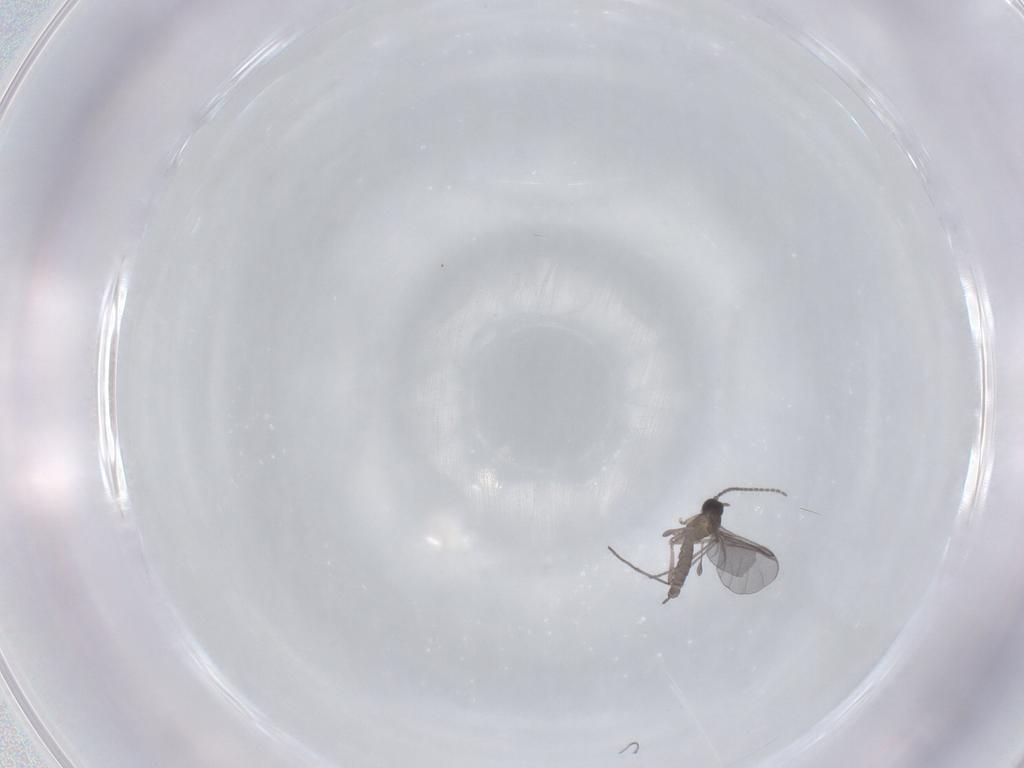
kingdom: Animalia
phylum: Arthropoda
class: Insecta
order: Diptera
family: Sciaridae
